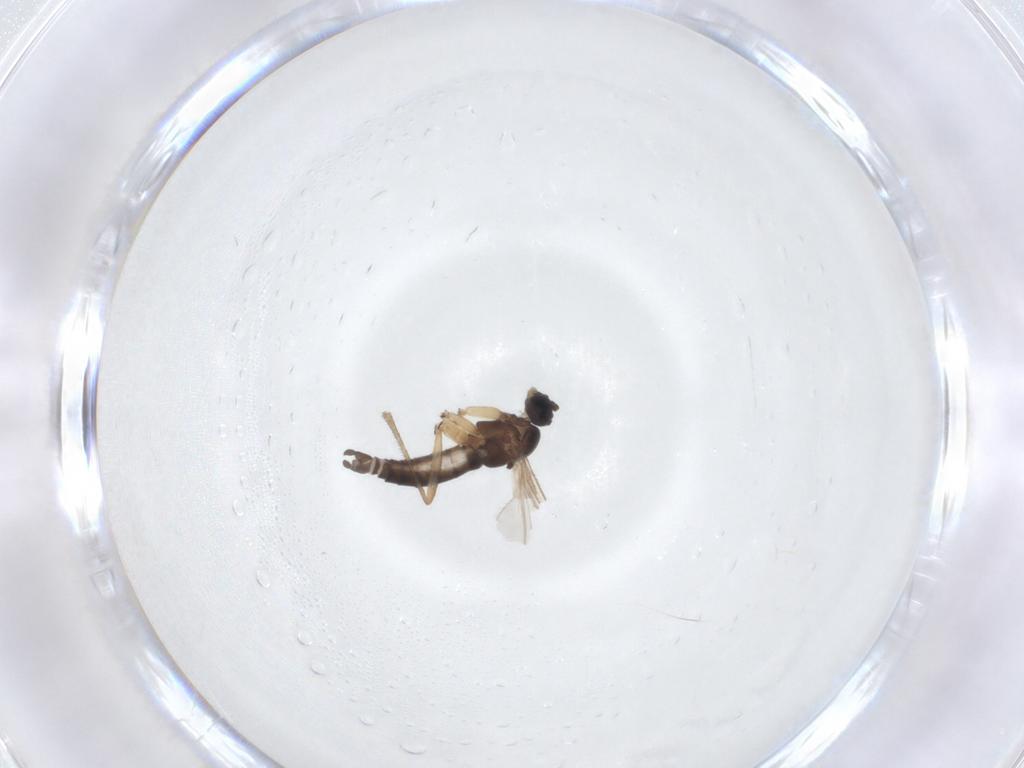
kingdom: Animalia
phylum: Arthropoda
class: Insecta
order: Diptera
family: Sciaridae
